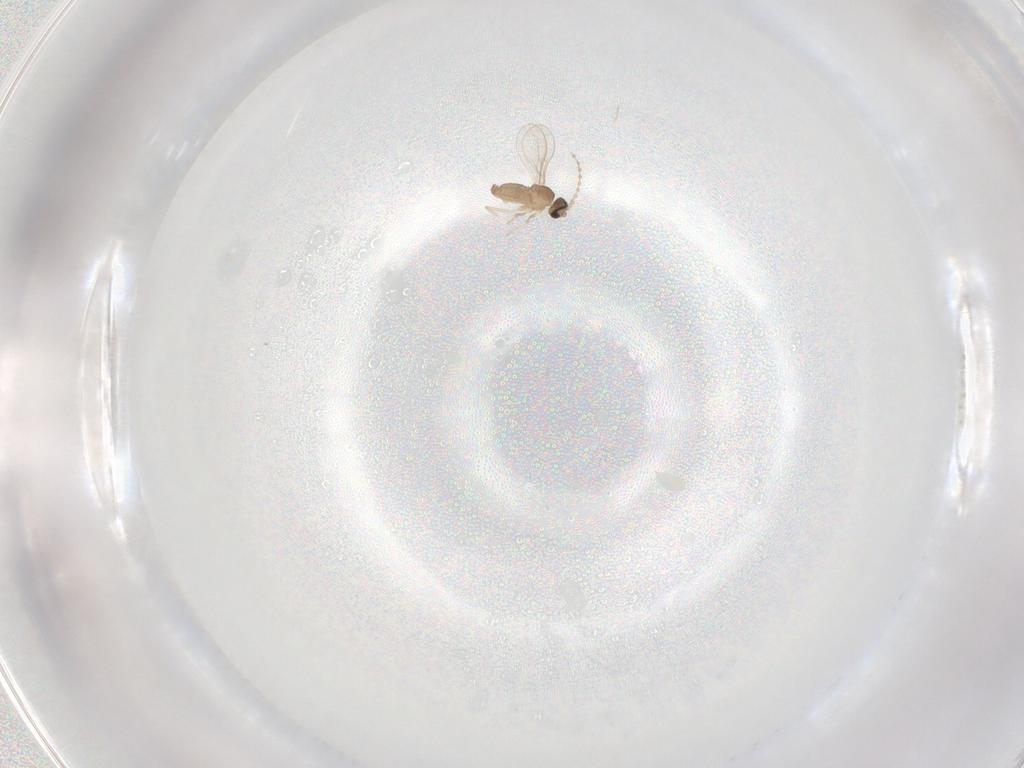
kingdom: Animalia
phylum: Arthropoda
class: Insecta
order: Diptera
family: Cecidomyiidae
